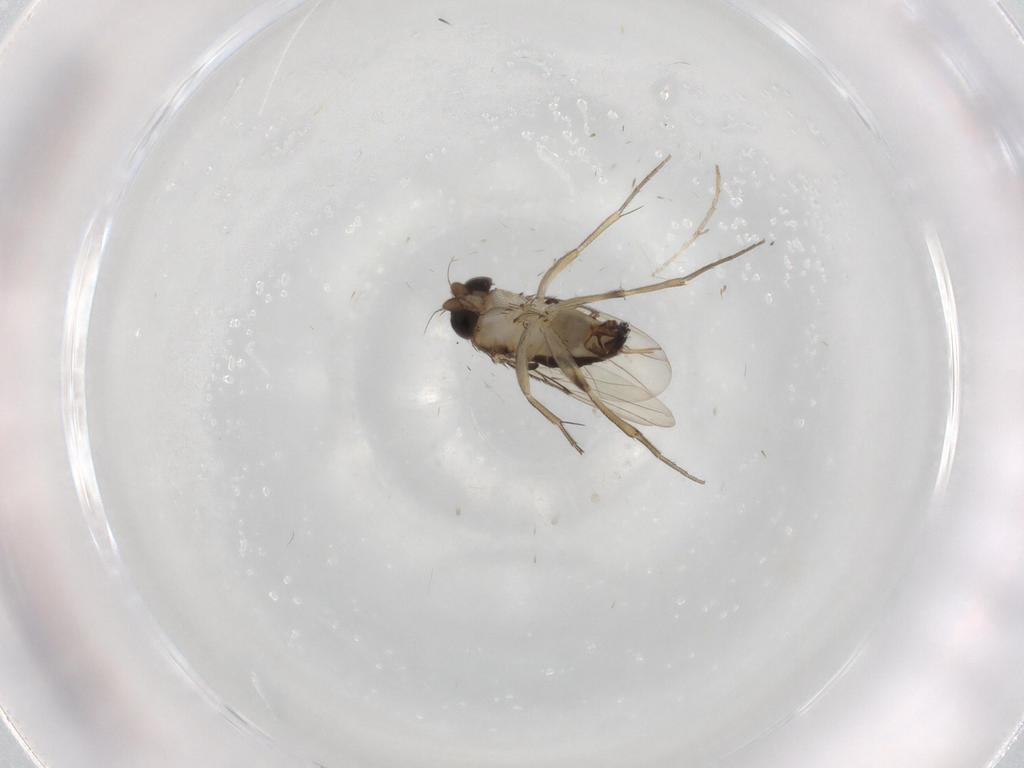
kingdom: Animalia
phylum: Arthropoda
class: Insecta
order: Diptera
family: Phoridae
